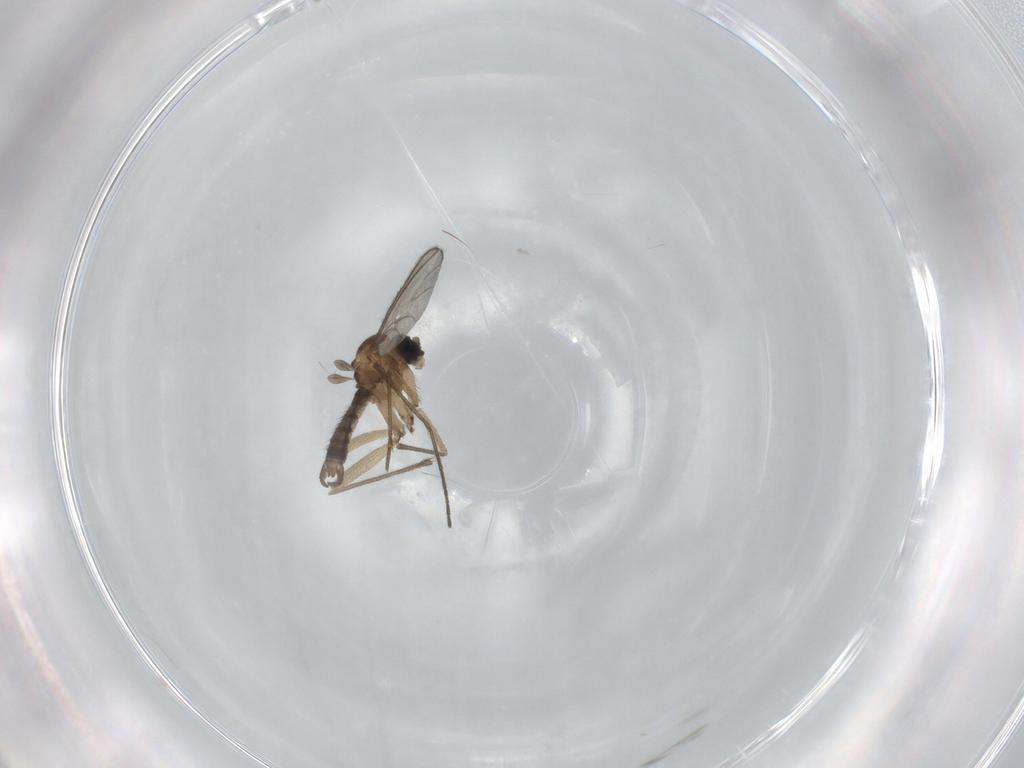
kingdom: Animalia
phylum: Arthropoda
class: Insecta
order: Diptera
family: Sciaridae
